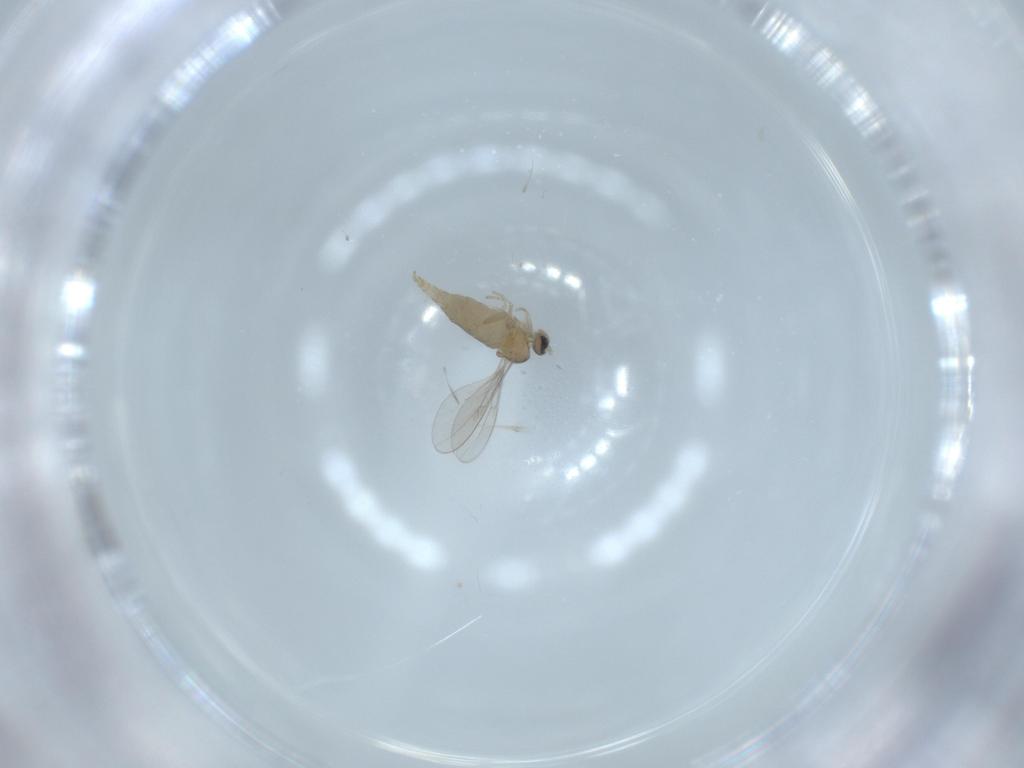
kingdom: Animalia
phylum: Arthropoda
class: Insecta
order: Diptera
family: Cecidomyiidae
